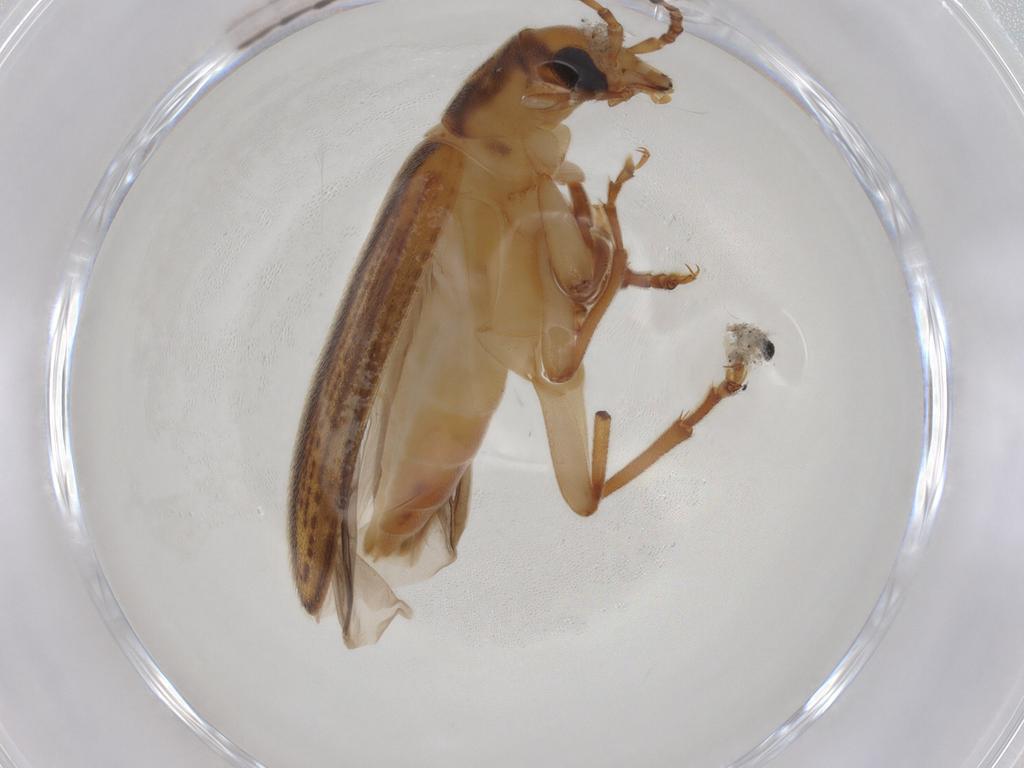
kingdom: Animalia
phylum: Arthropoda
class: Insecta
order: Coleoptera
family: Oedemeridae
